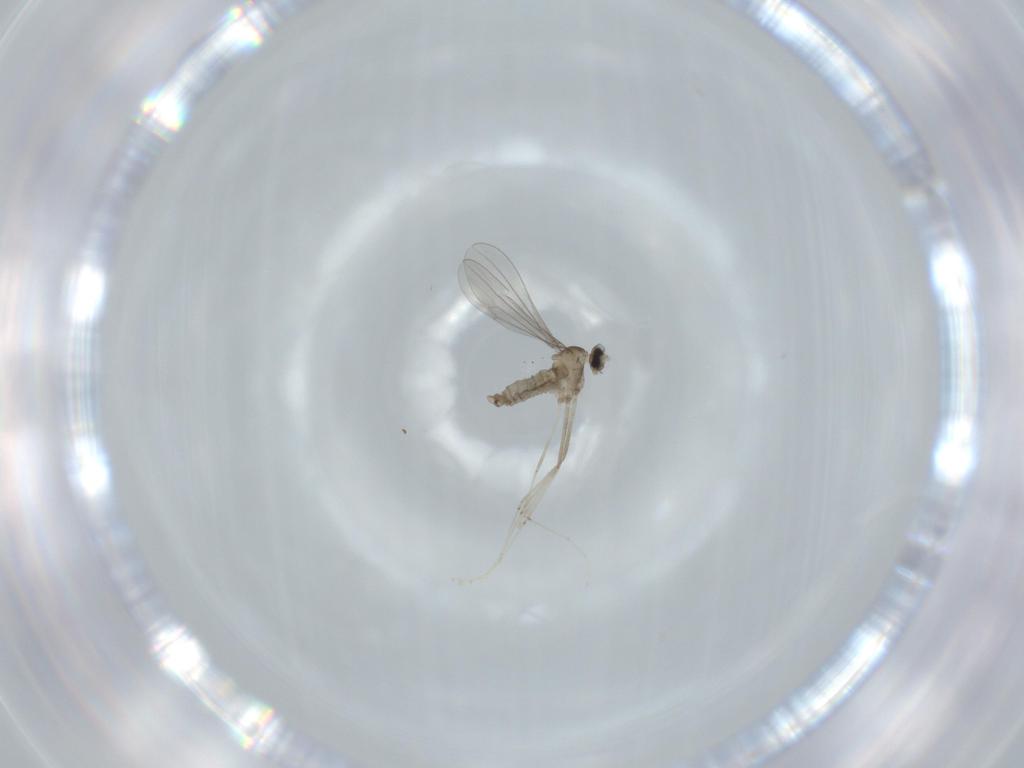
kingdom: Animalia
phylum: Arthropoda
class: Insecta
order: Diptera
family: Cecidomyiidae
